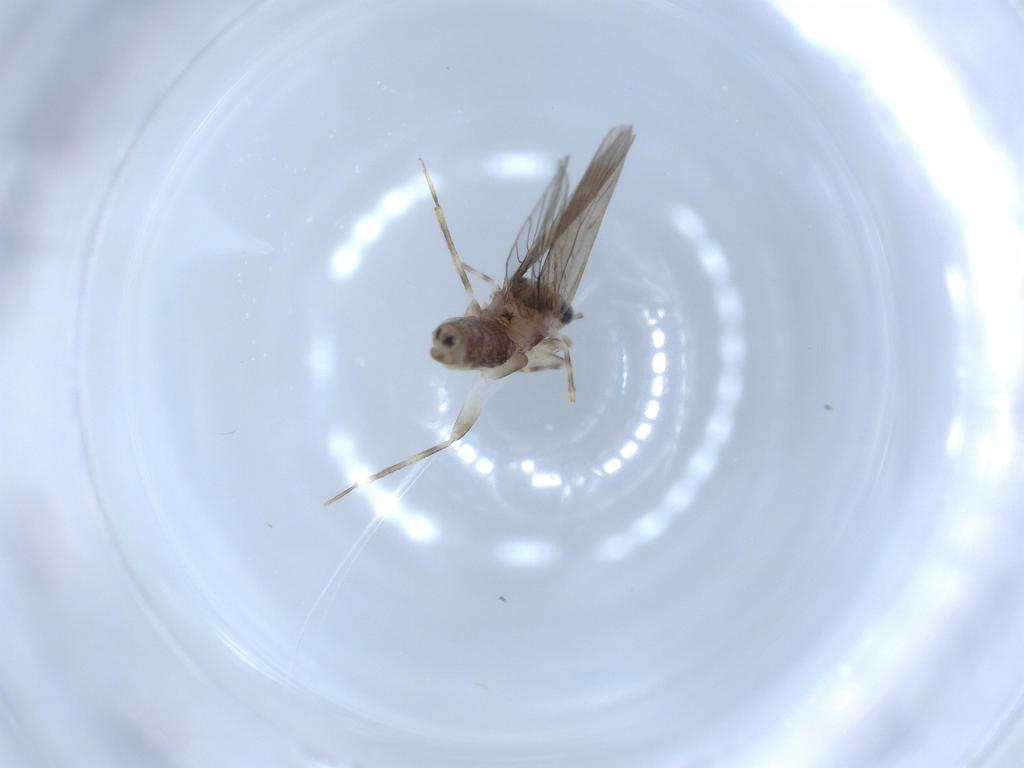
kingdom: Animalia
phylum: Arthropoda
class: Insecta
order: Psocodea
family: Lepidopsocidae
